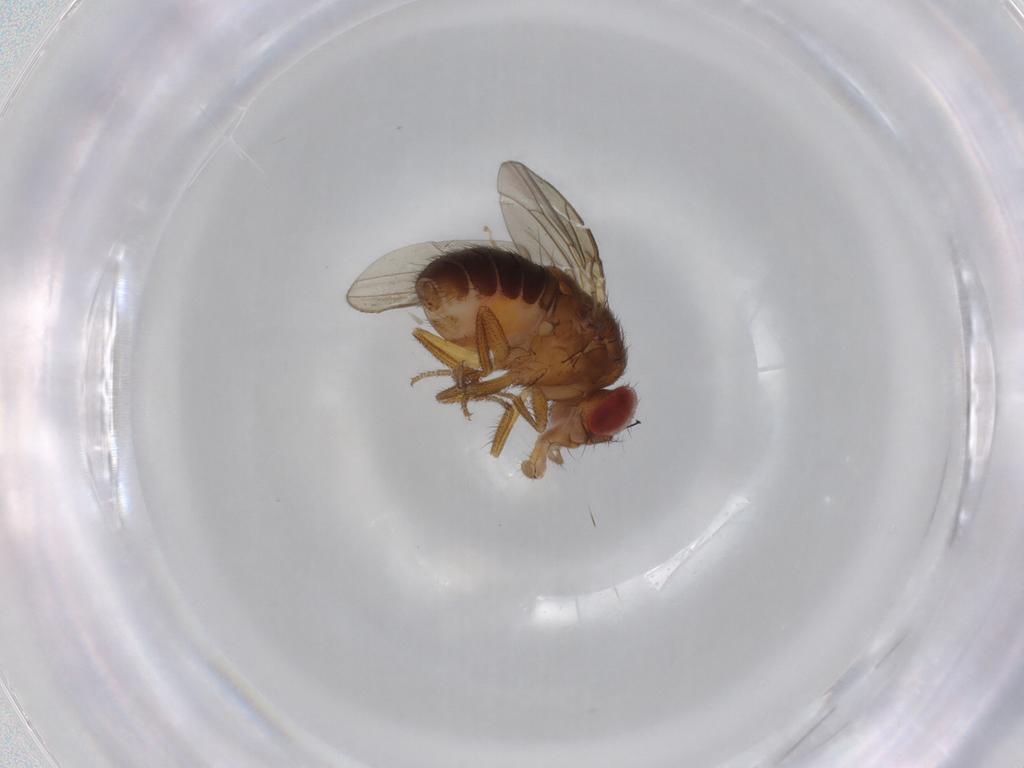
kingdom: Animalia
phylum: Arthropoda
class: Insecta
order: Diptera
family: Drosophilidae
